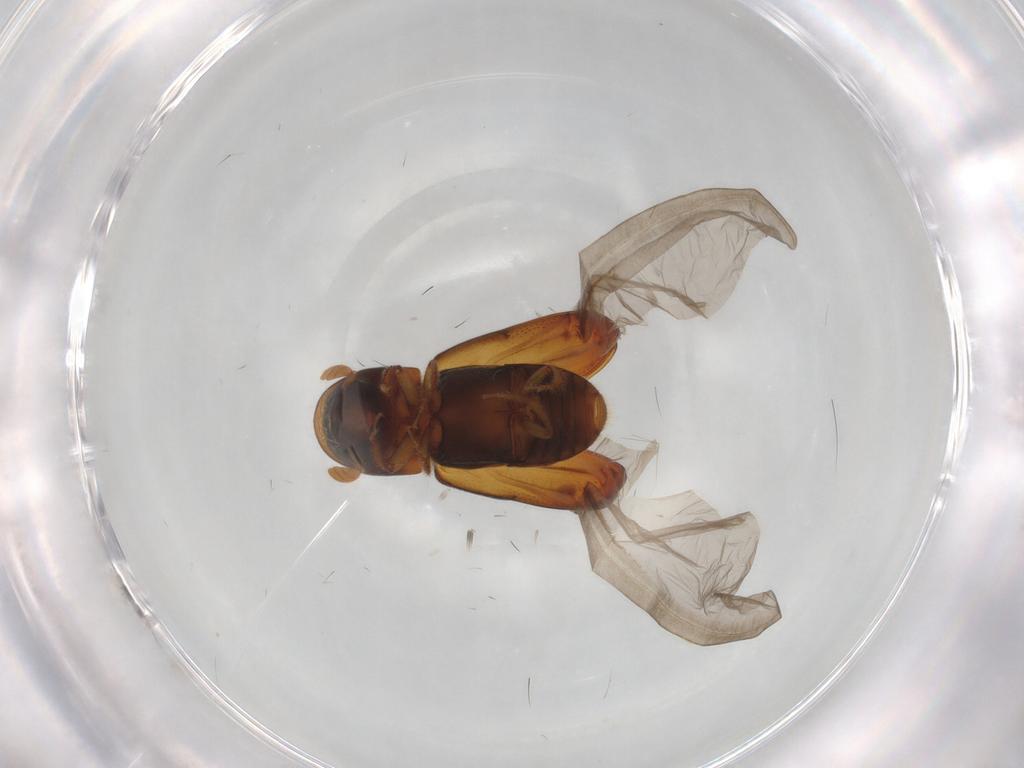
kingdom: Animalia
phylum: Arthropoda
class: Insecta
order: Coleoptera
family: Curculionidae
